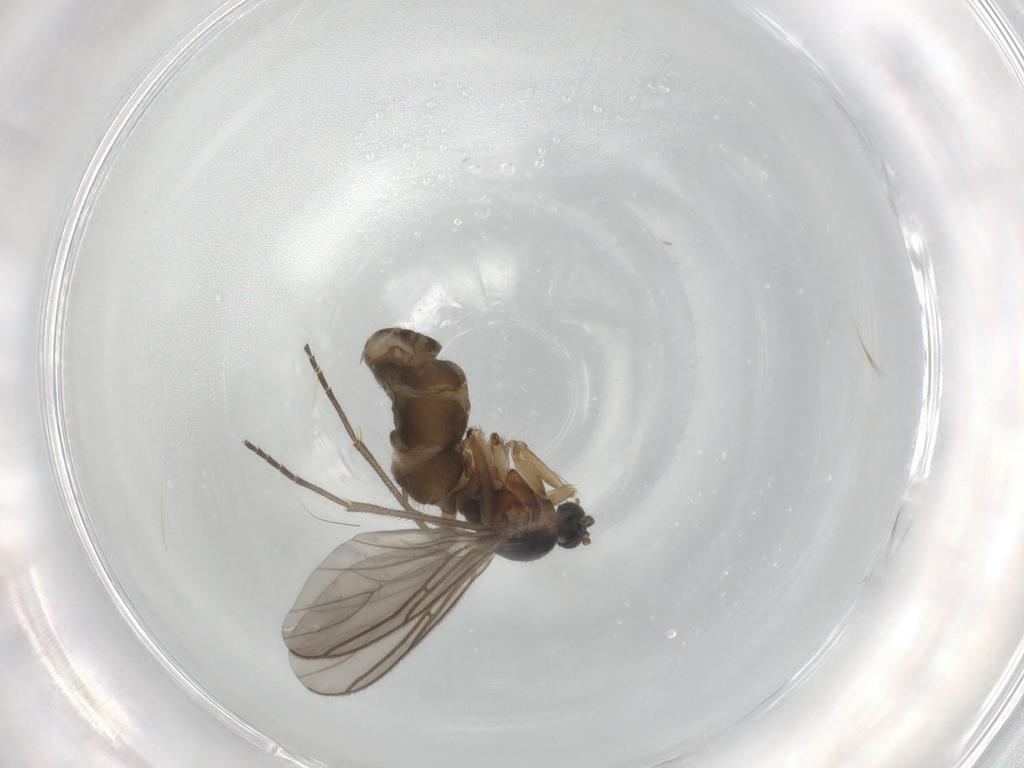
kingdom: Animalia
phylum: Arthropoda
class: Insecta
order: Diptera
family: Sciaridae
